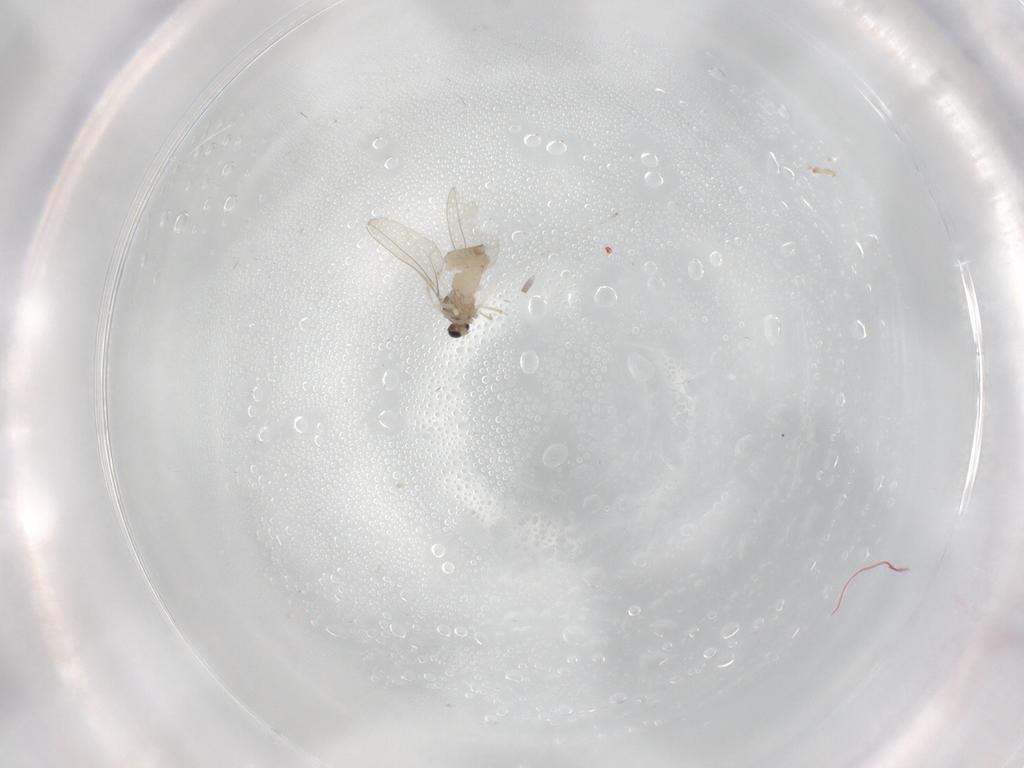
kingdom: Animalia
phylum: Arthropoda
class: Insecta
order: Diptera
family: Cecidomyiidae
